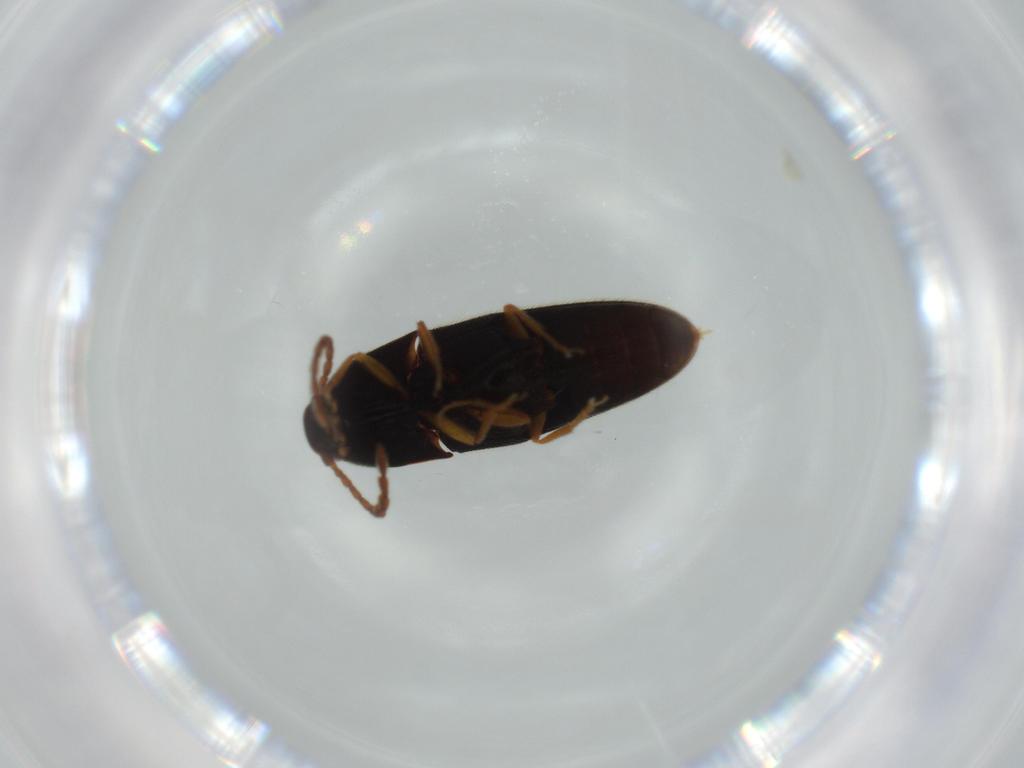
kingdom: Animalia
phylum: Arthropoda
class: Insecta
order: Coleoptera
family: Elateridae
